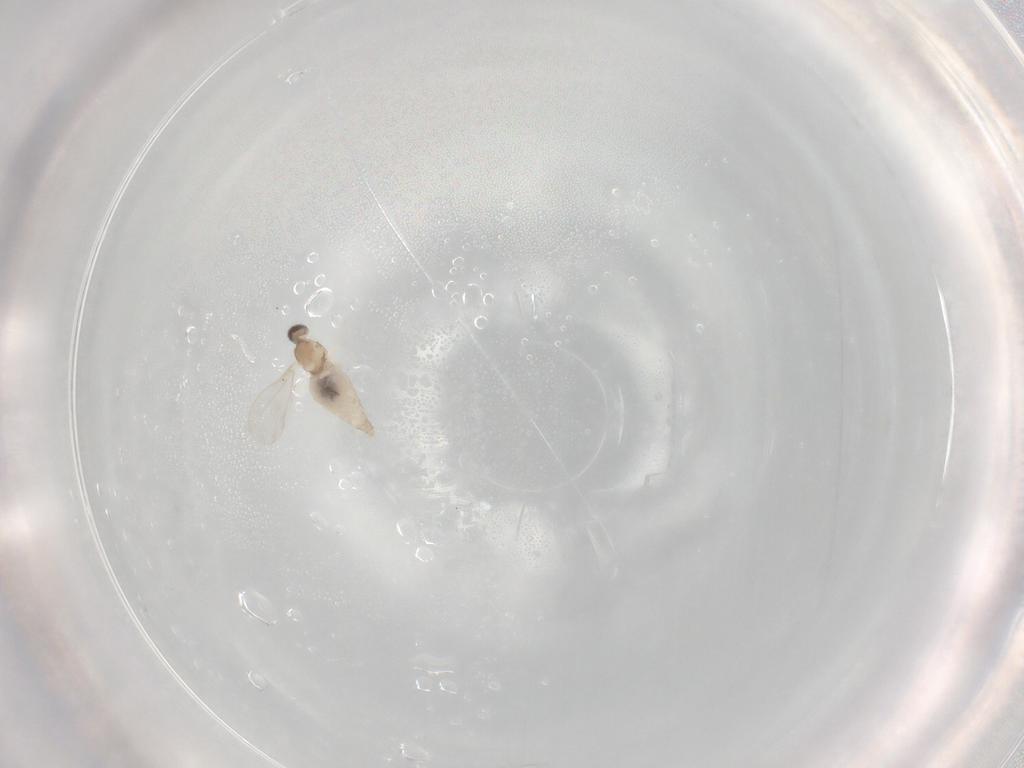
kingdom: Animalia
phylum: Arthropoda
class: Insecta
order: Diptera
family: Cecidomyiidae
